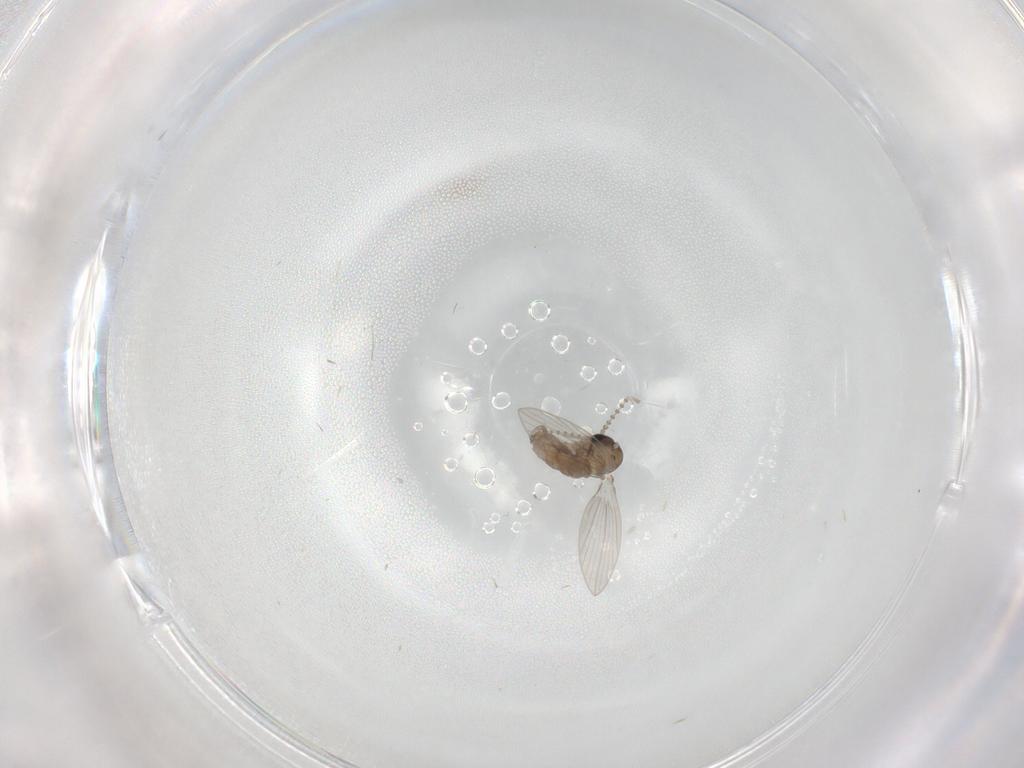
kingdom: Animalia
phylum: Arthropoda
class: Insecta
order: Diptera
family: Psychodidae
